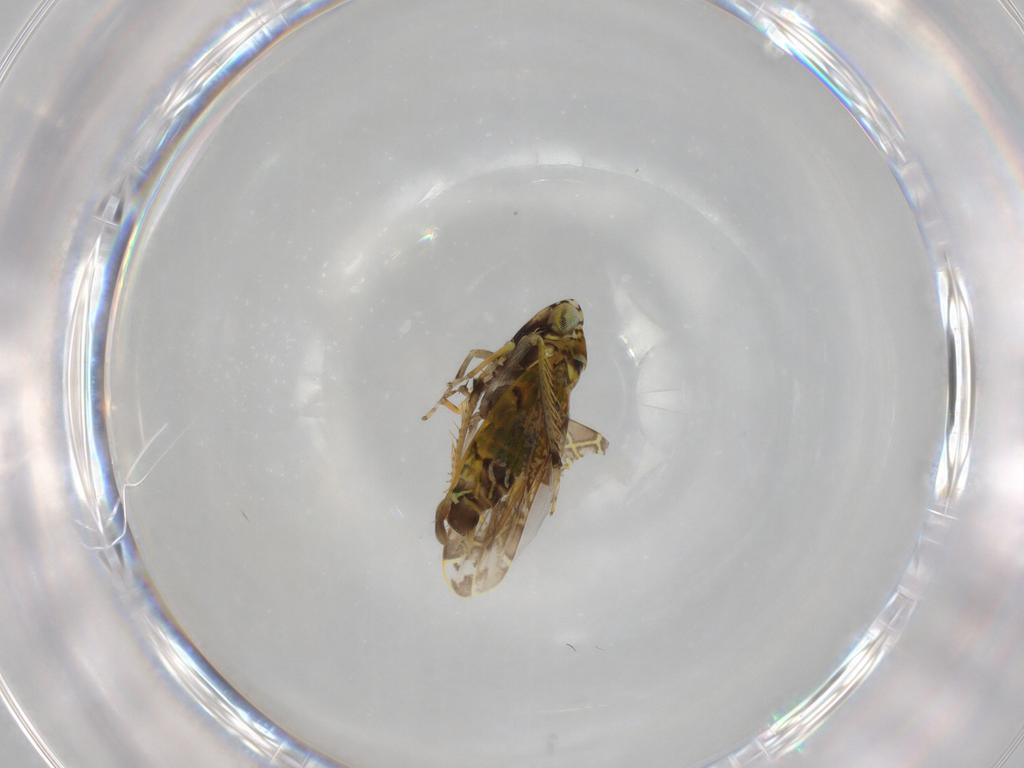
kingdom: Animalia
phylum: Arthropoda
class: Insecta
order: Hemiptera
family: Cicadellidae
